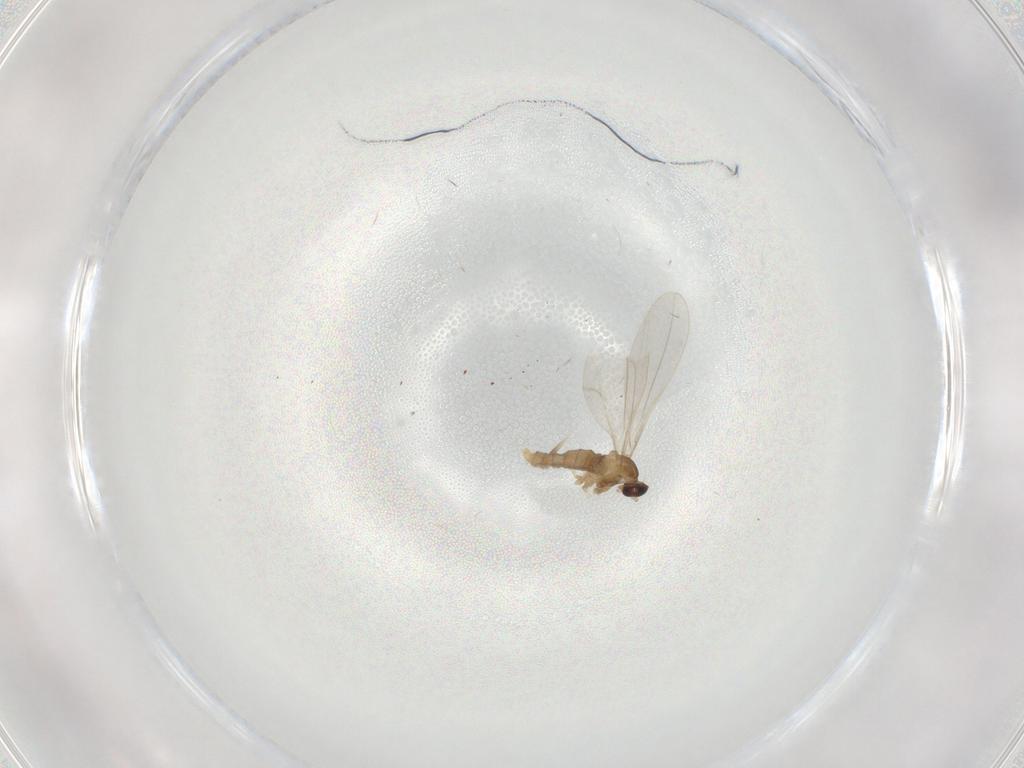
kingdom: Animalia
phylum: Arthropoda
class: Insecta
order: Diptera
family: Cecidomyiidae
